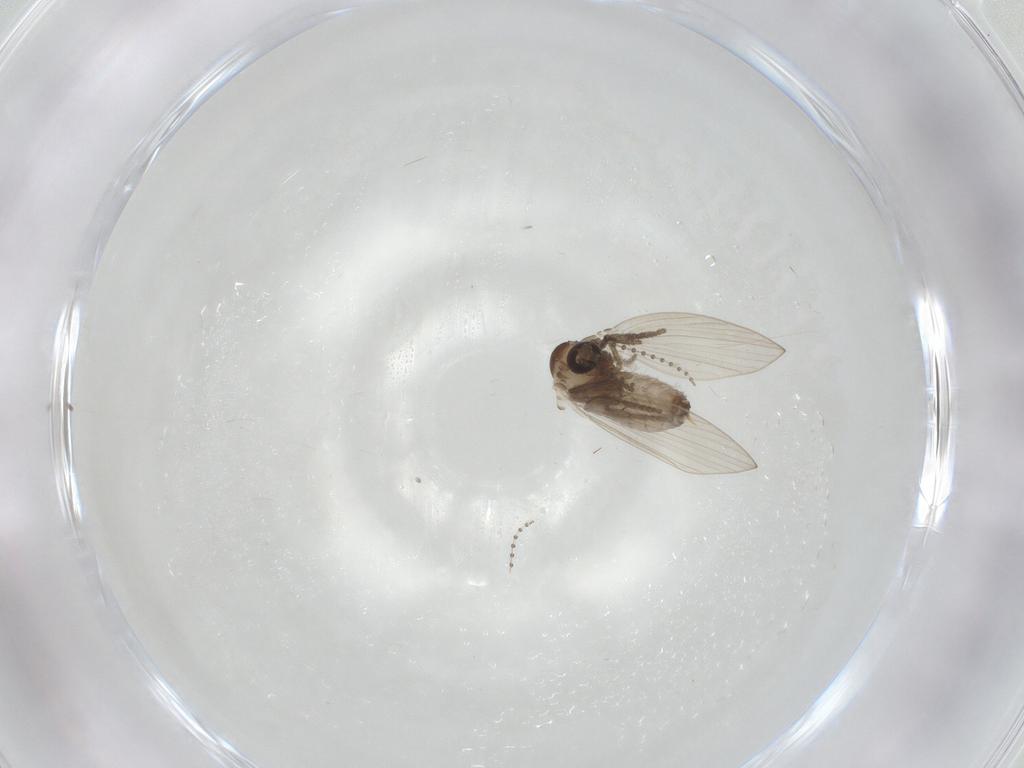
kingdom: Animalia
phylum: Arthropoda
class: Insecta
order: Diptera
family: Psychodidae
